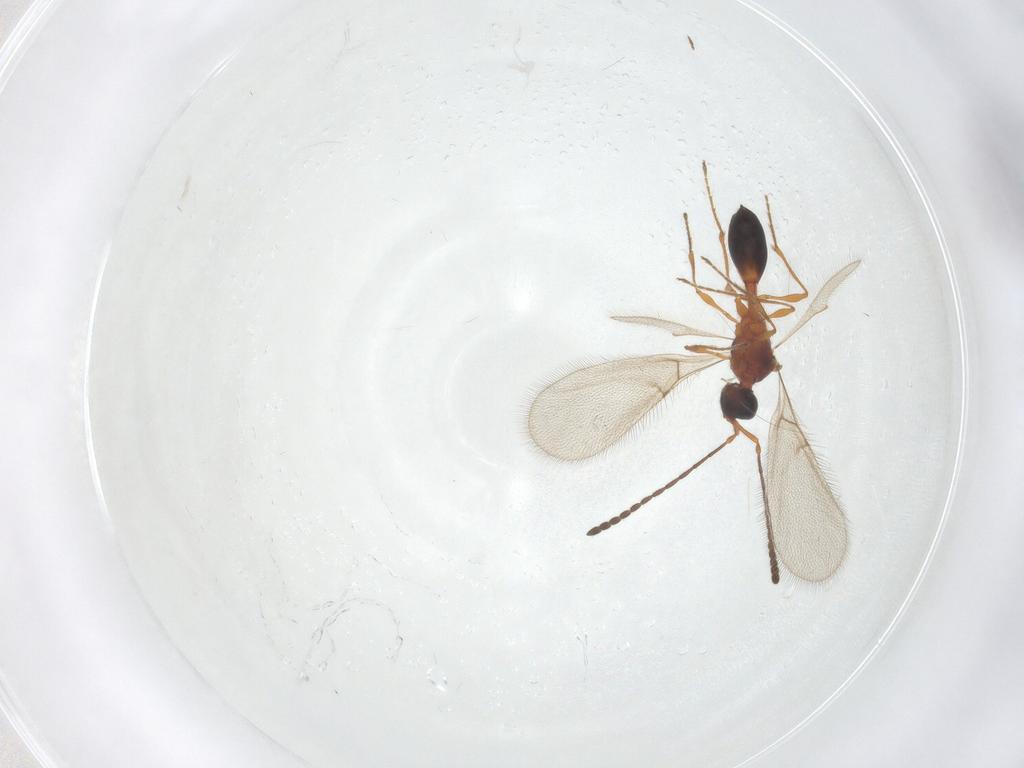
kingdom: Animalia
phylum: Arthropoda
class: Insecta
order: Hymenoptera
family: Diapriidae
